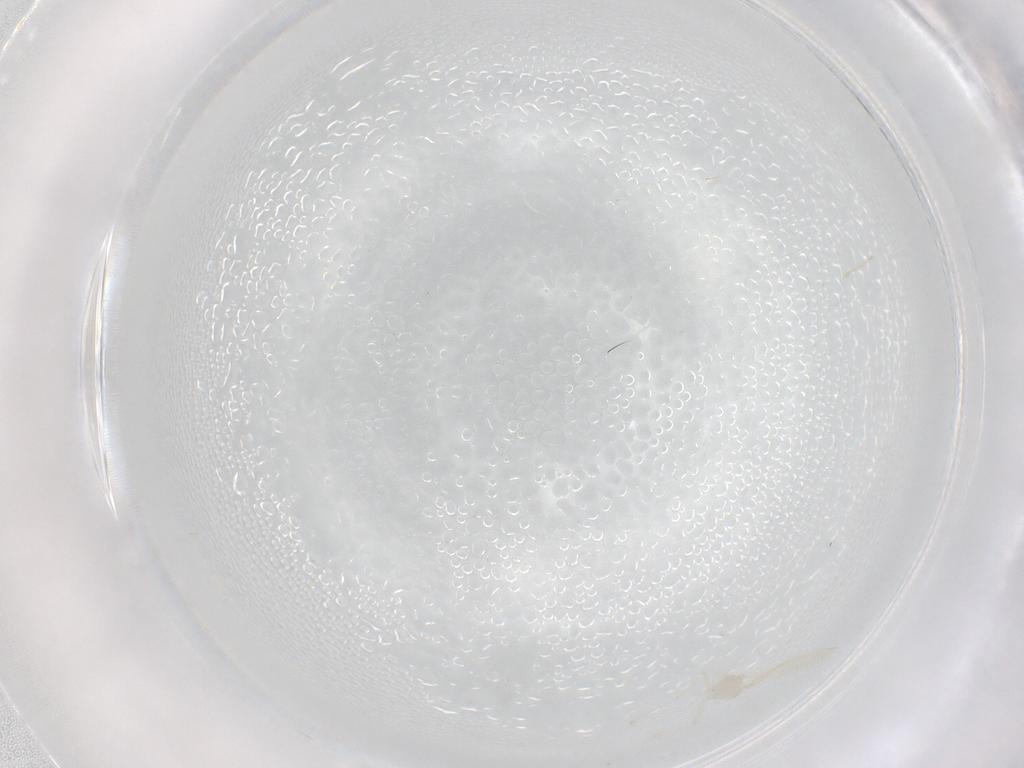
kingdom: Animalia
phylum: Arthropoda
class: Insecta
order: Diptera
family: Cecidomyiidae
